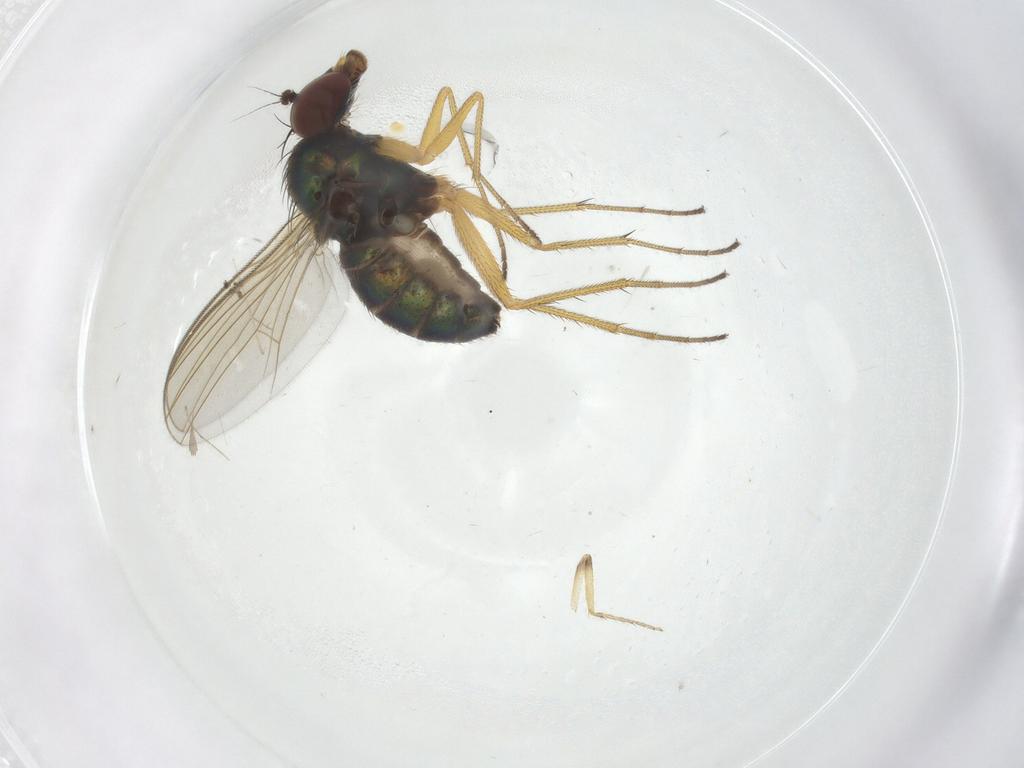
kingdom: Animalia
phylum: Arthropoda
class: Insecta
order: Diptera
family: Dolichopodidae
